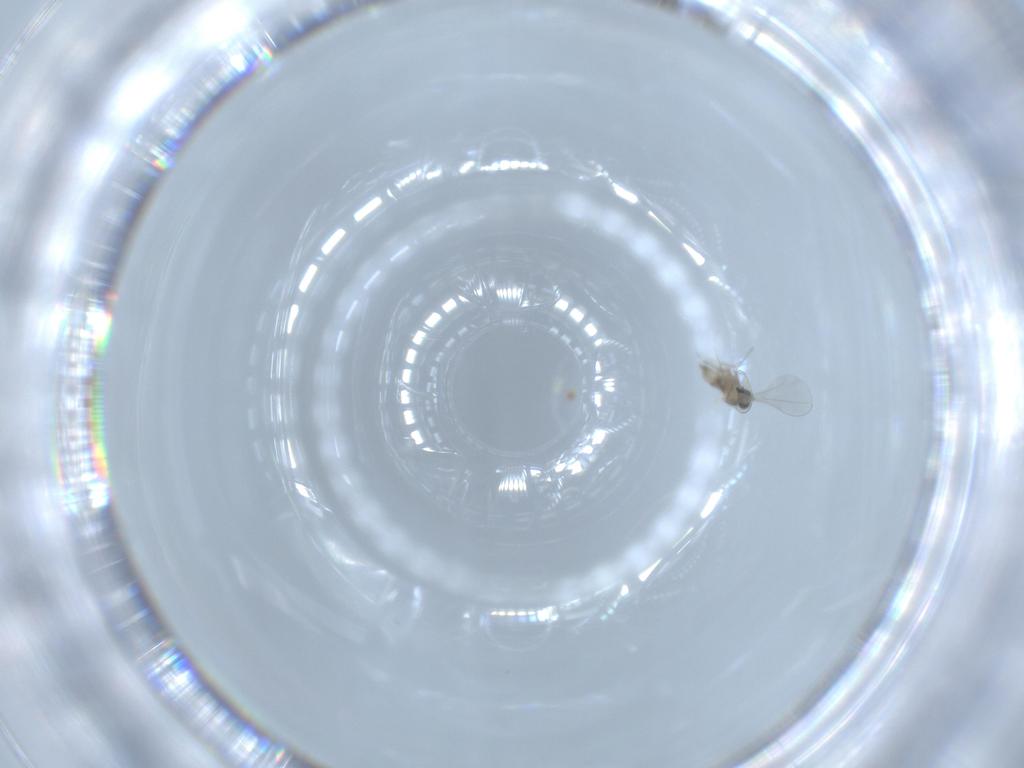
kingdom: Animalia
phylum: Arthropoda
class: Insecta
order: Diptera
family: Cecidomyiidae
